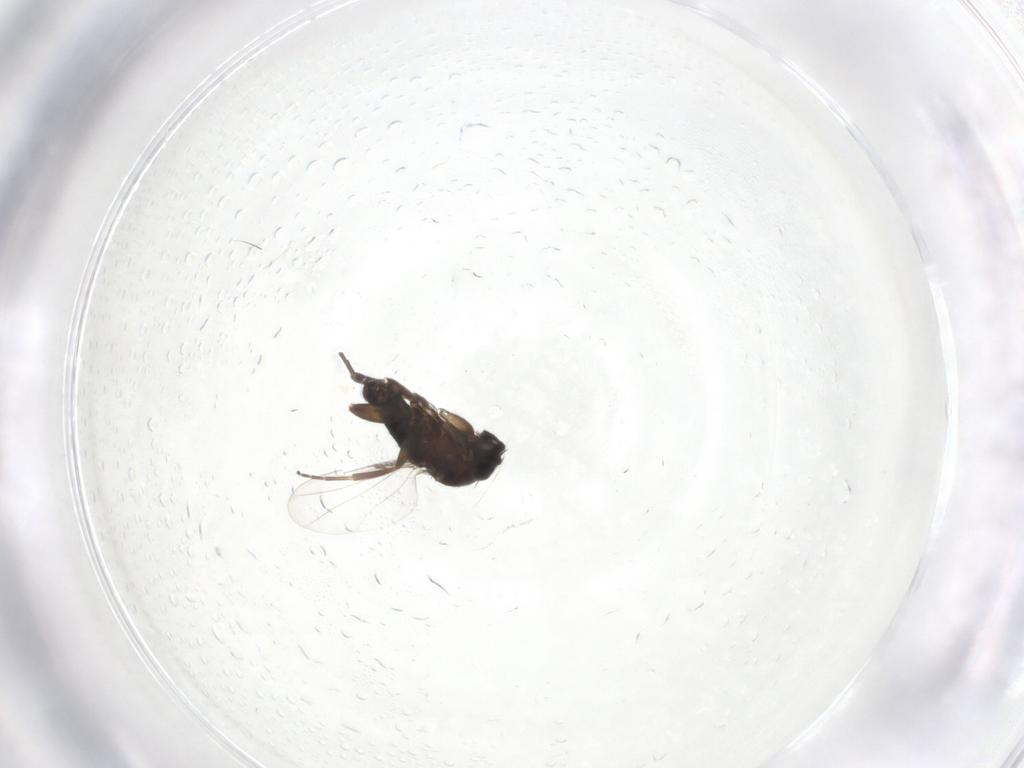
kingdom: Animalia
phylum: Arthropoda
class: Insecta
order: Diptera
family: Phoridae
